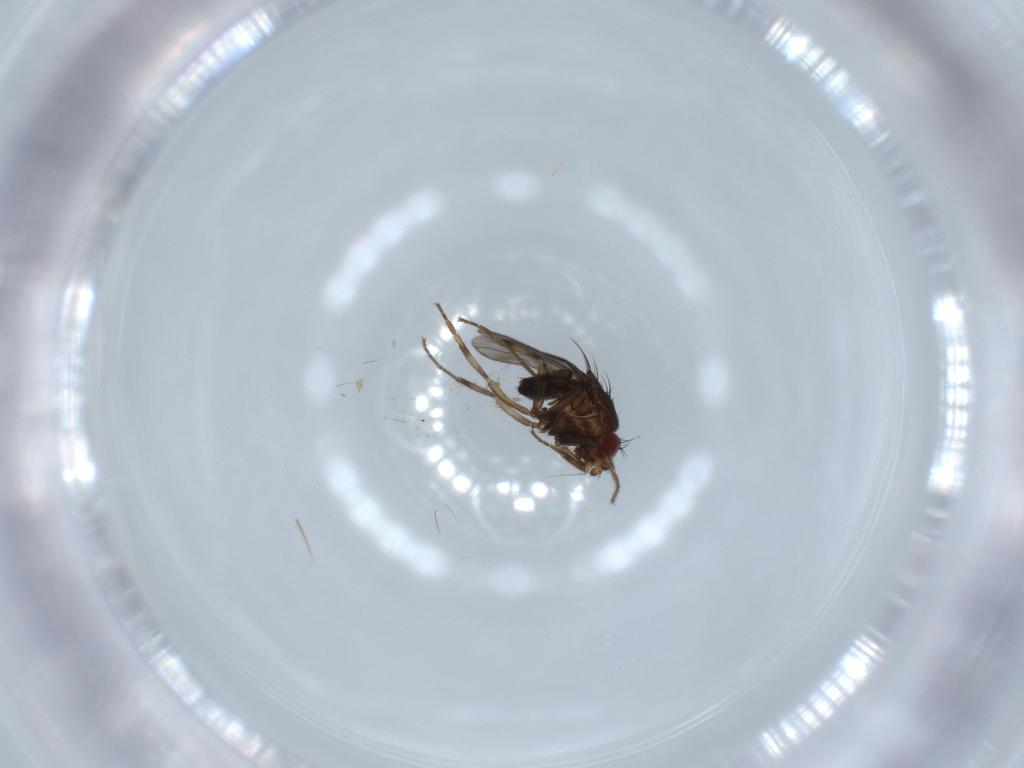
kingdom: Animalia
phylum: Arthropoda
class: Insecta
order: Diptera
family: Sphaeroceridae
